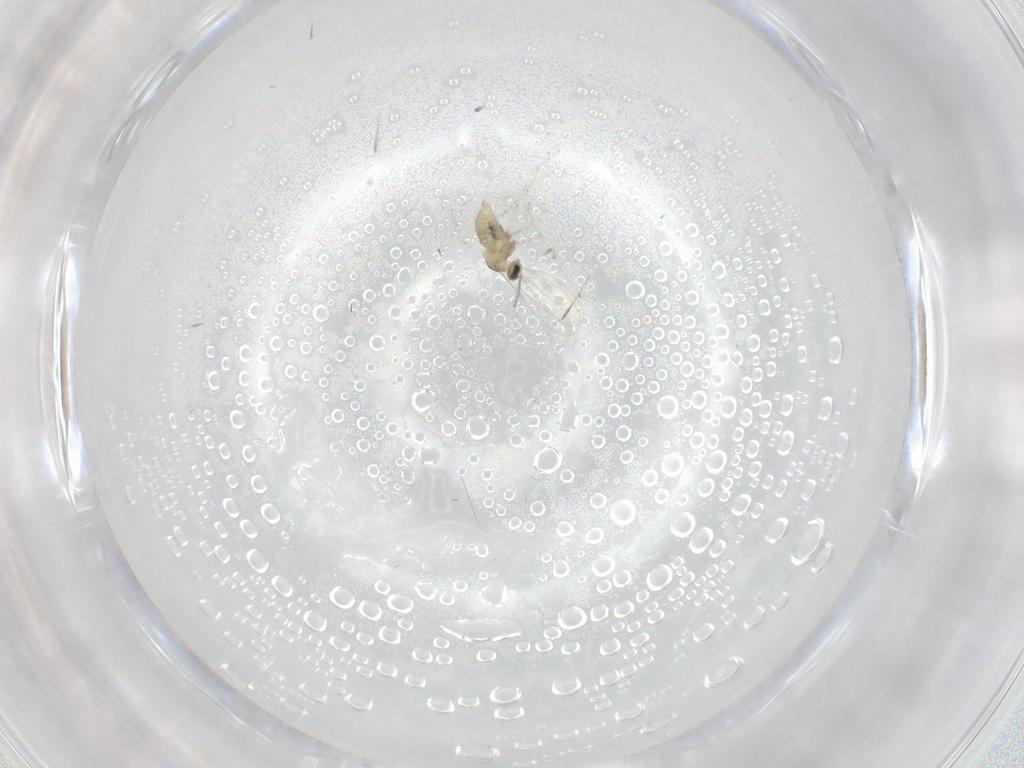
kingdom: Animalia
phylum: Arthropoda
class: Insecta
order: Diptera
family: Cecidomyiidae
